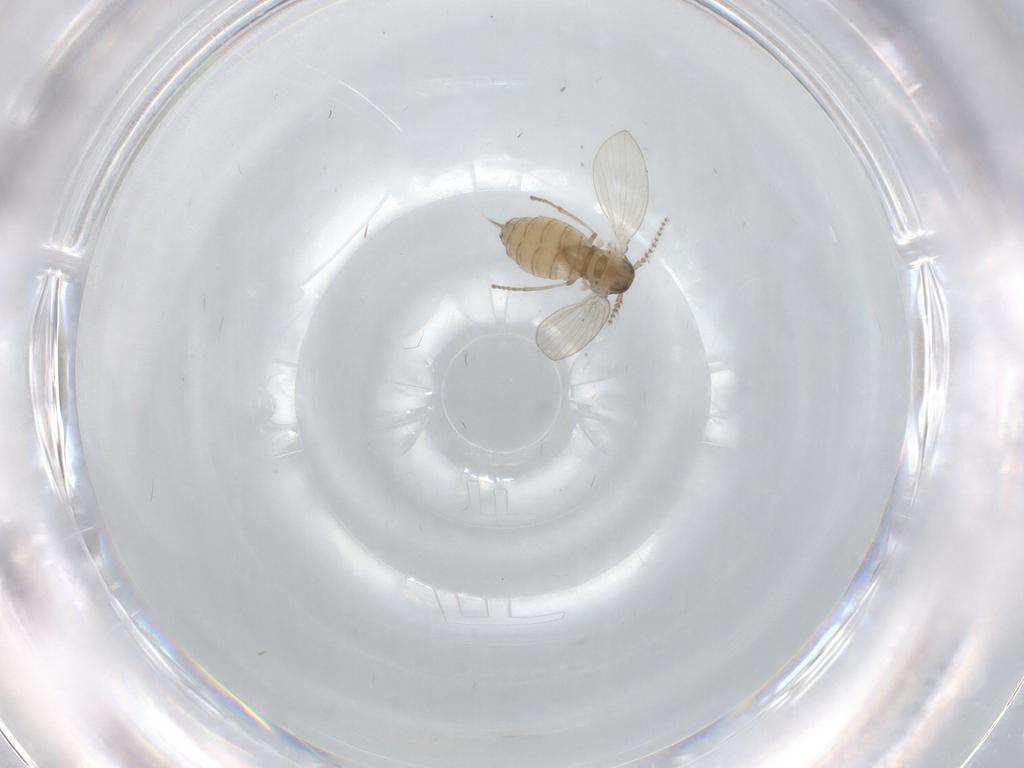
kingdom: Animalia
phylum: Arthropoda
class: Insecta
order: Diptera
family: Psychodidae
